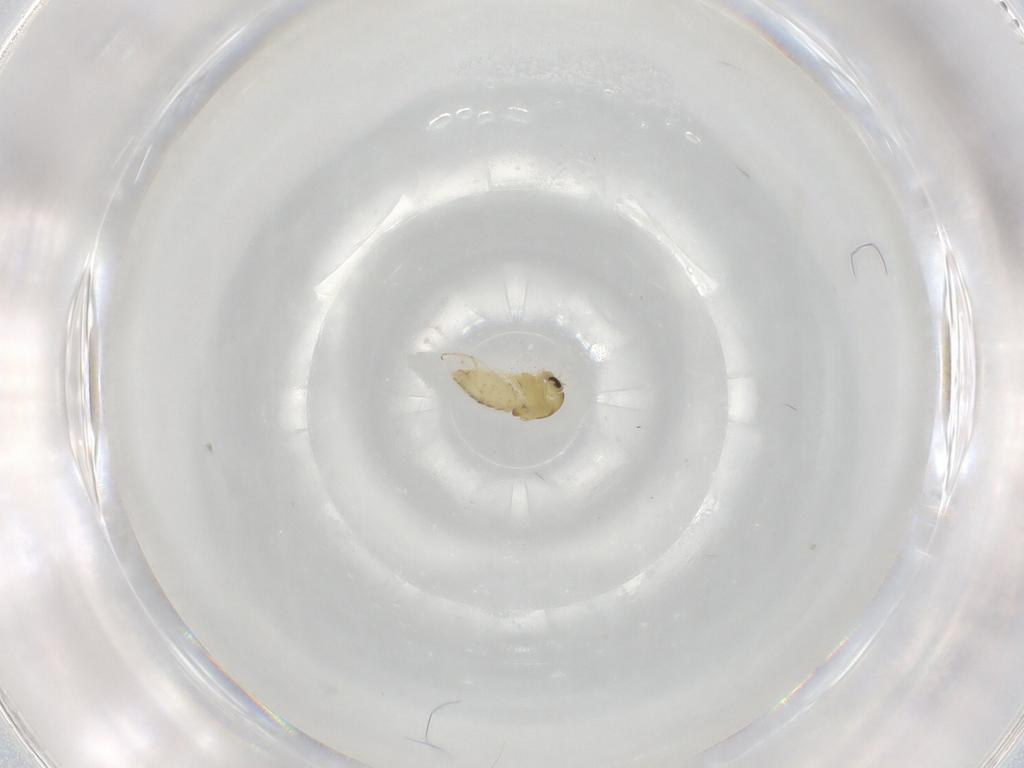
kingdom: Animalia
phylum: Arthropoda
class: Insecta
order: Diptera
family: Chironomidae
